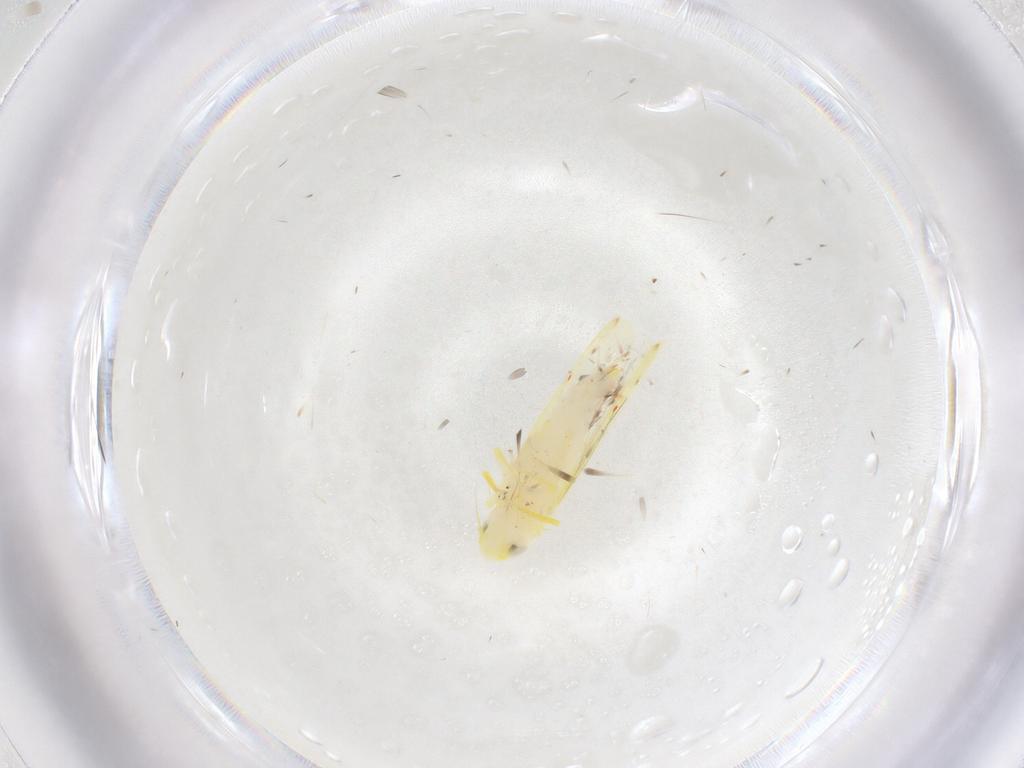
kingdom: Animalia
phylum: Arthropoda
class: Insecta
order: Hemiptera
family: Cicadellidae
